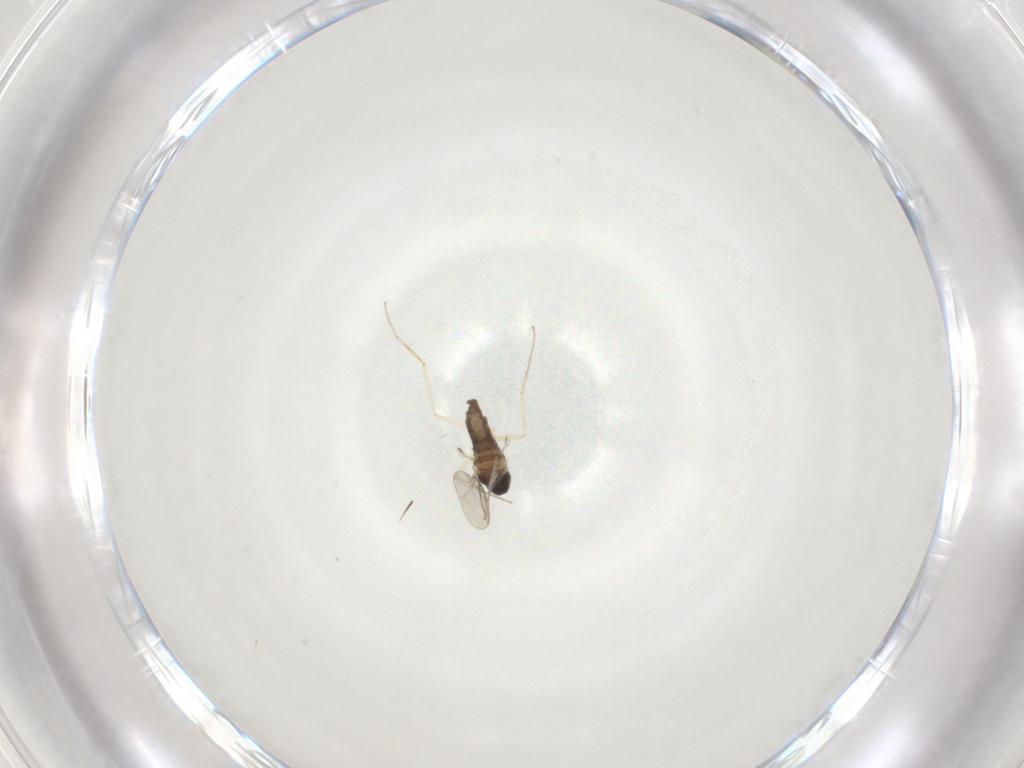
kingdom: Animalia
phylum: Arthropoda
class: Insecta
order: Diptera
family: Cecidomyiidae
